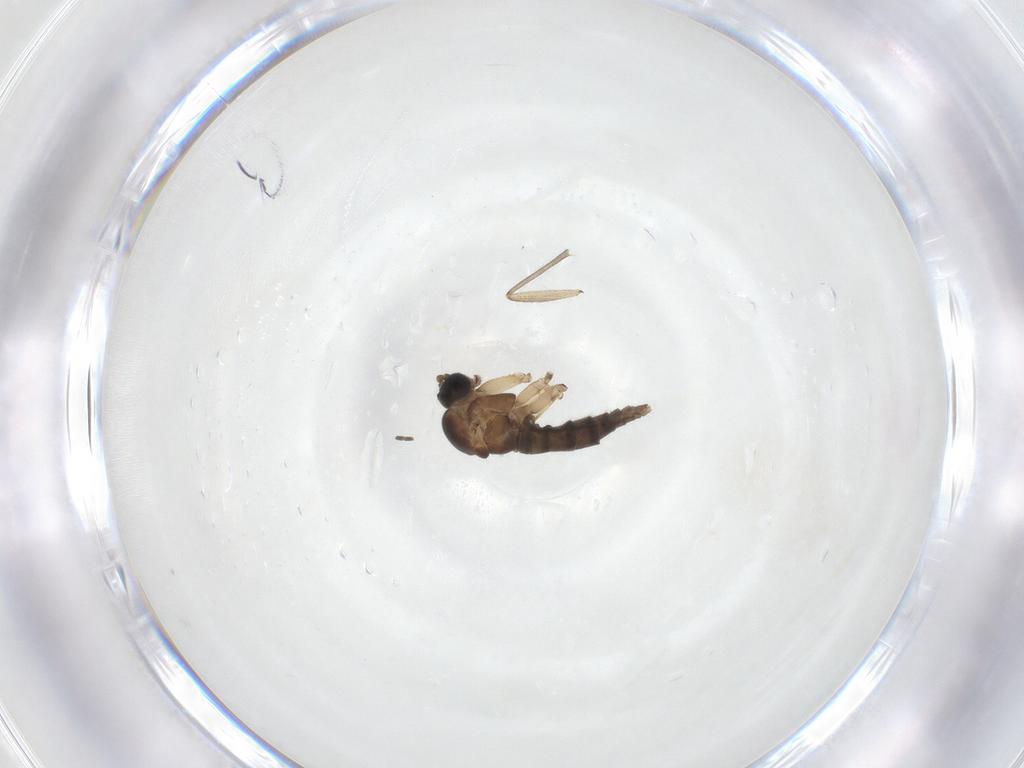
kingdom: Animalia
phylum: Arthropoda
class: Insecta
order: Diptera
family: Sciaridae
